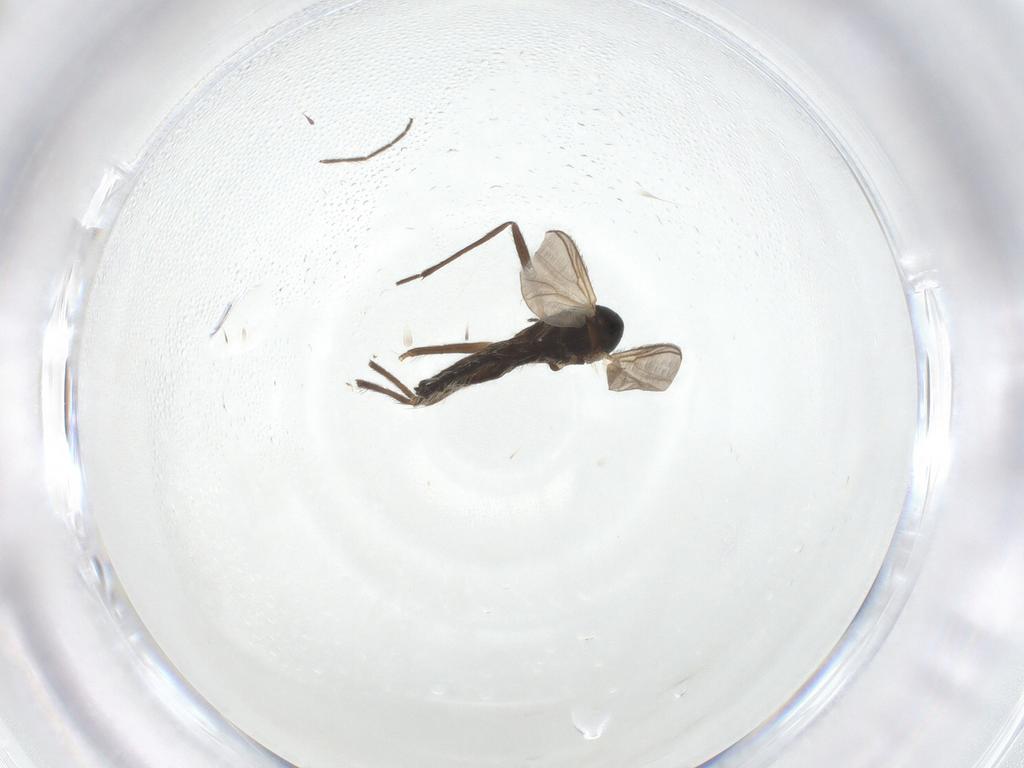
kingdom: Animalia
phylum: Arthropoda
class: Insecta
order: Diptera
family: Chironomidae
